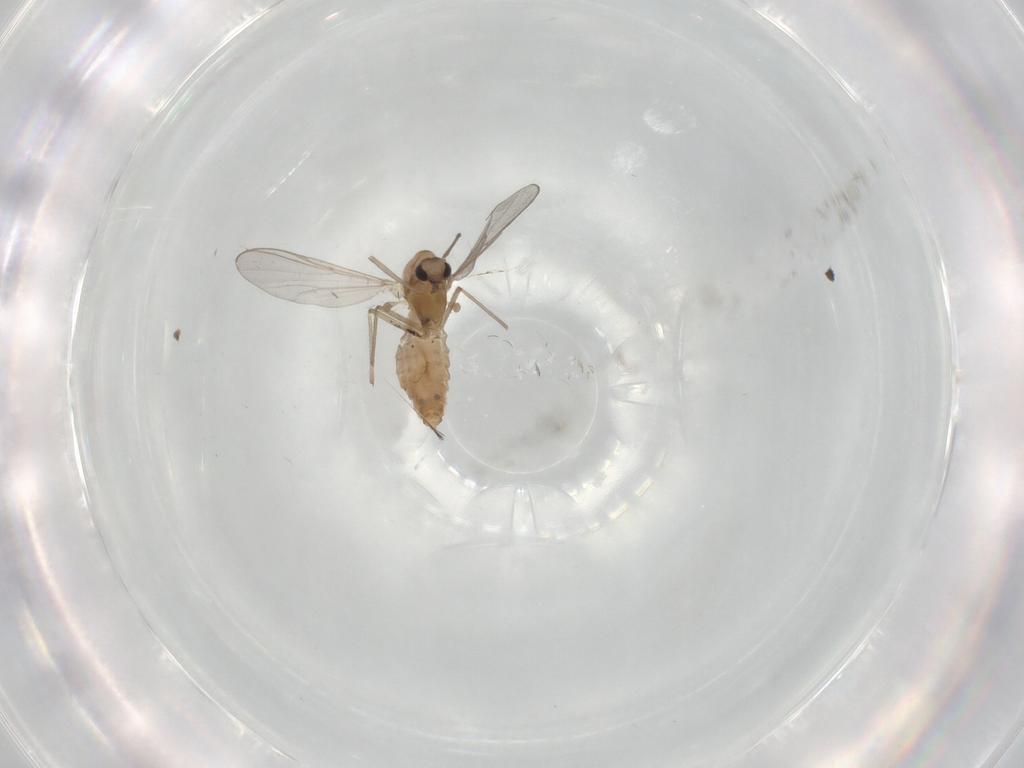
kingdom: Animalia
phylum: Arthropoda
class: Insecta
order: Diptera
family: Chironomidae
